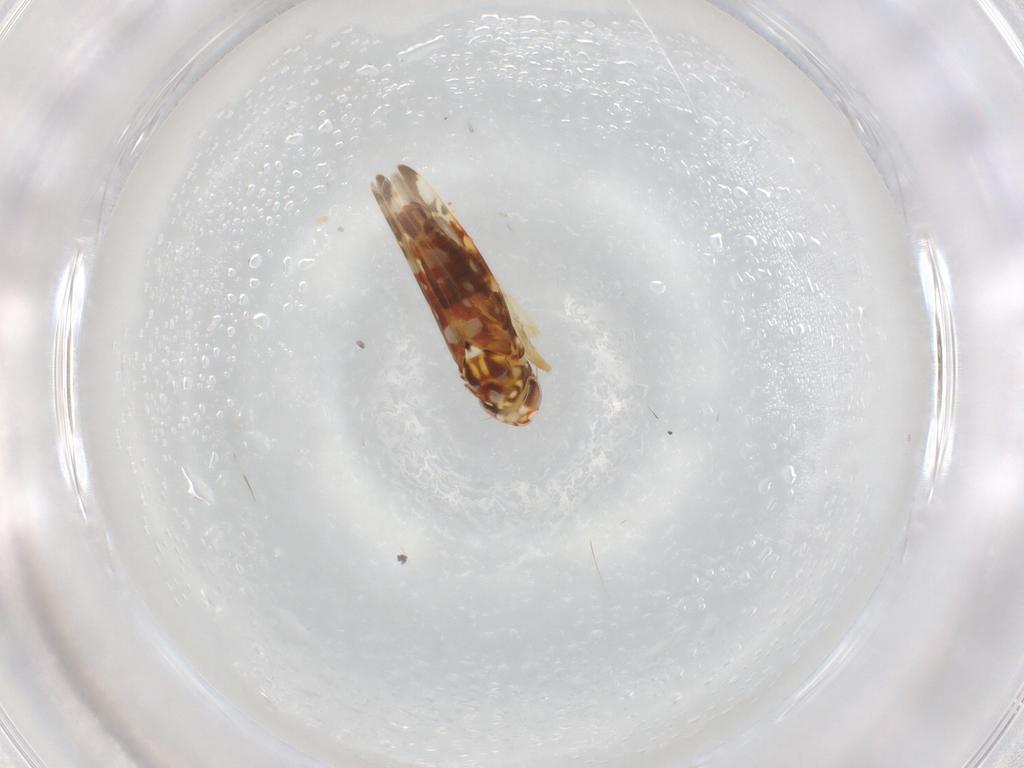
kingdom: Animalia
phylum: Arthropoda
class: Insecta
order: Hemiptera
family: Cicadellidae
